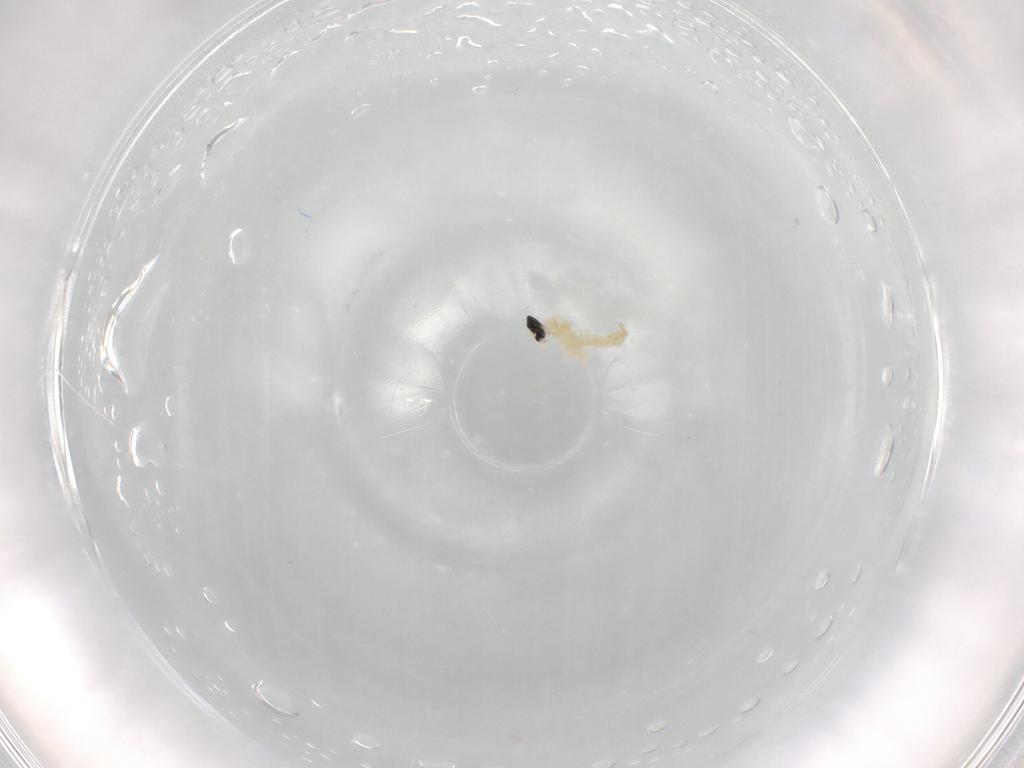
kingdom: Animalia
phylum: Arthropoda
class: Insecta
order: Diptera
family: Cecidomyiidae
